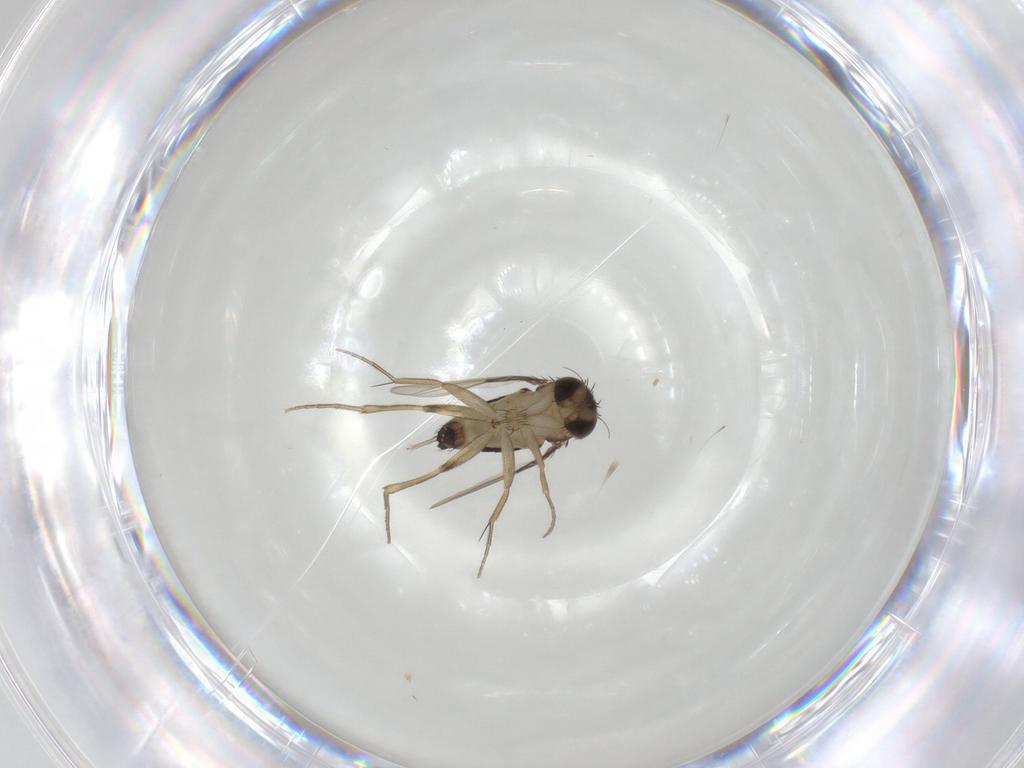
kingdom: Animalia
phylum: Arthropoda
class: Insecta
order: Diptera
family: Phoridae
